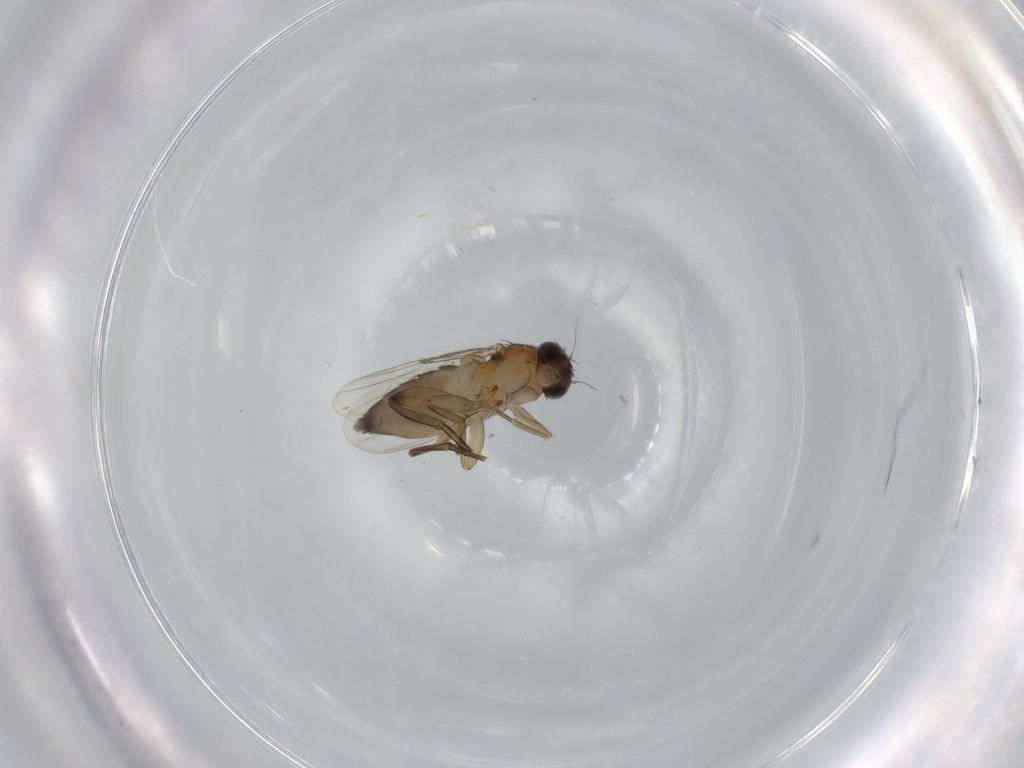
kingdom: Animalia
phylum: Arthropoda
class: Insecta
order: Diptera
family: Phoridae
